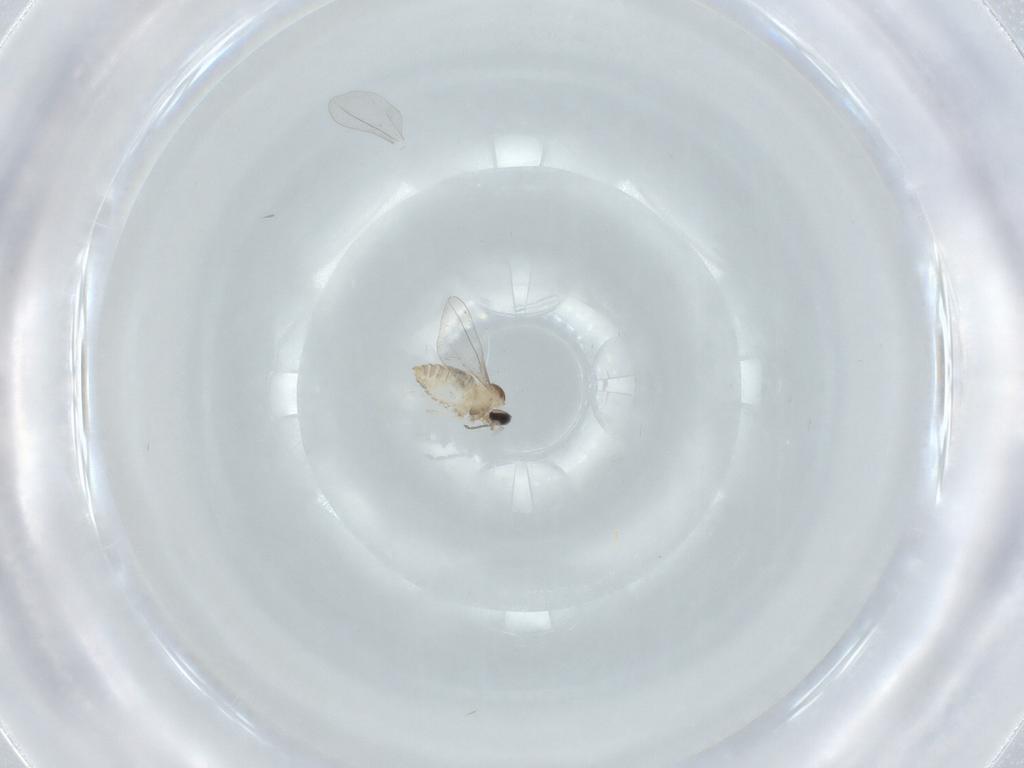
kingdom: Animalia
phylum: Arthropoda
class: Insecta
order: Diptera
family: Cecidomyiidae
